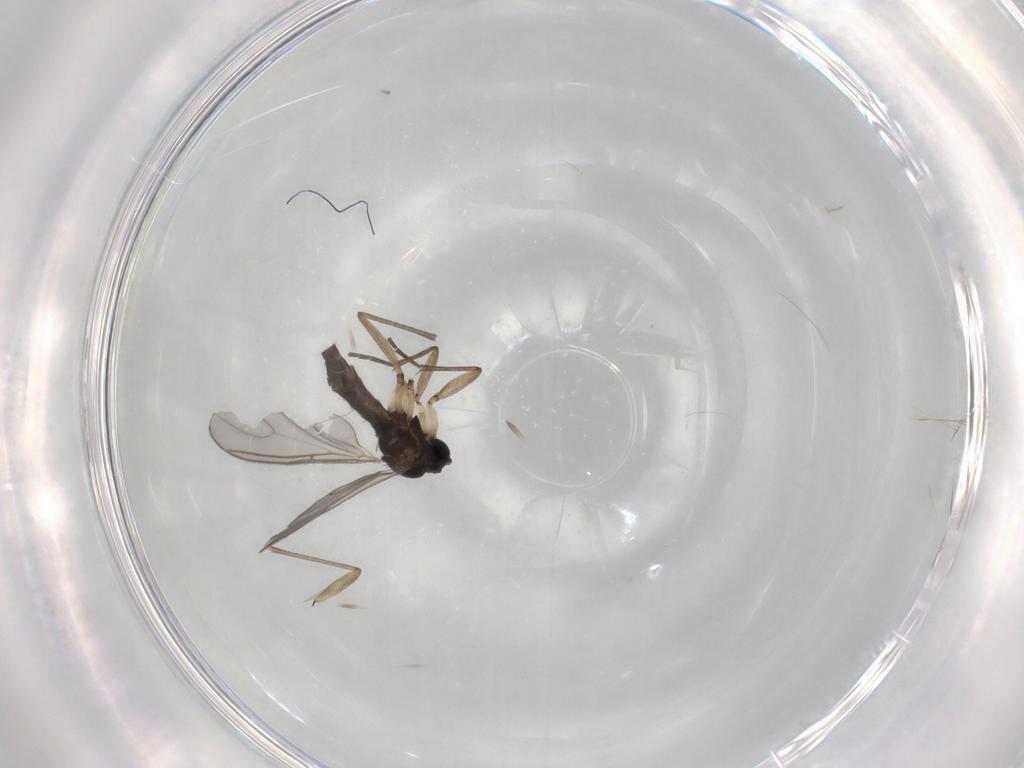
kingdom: Animalia
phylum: Arthropoda
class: Insecta
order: Diptera
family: Sciaridae
